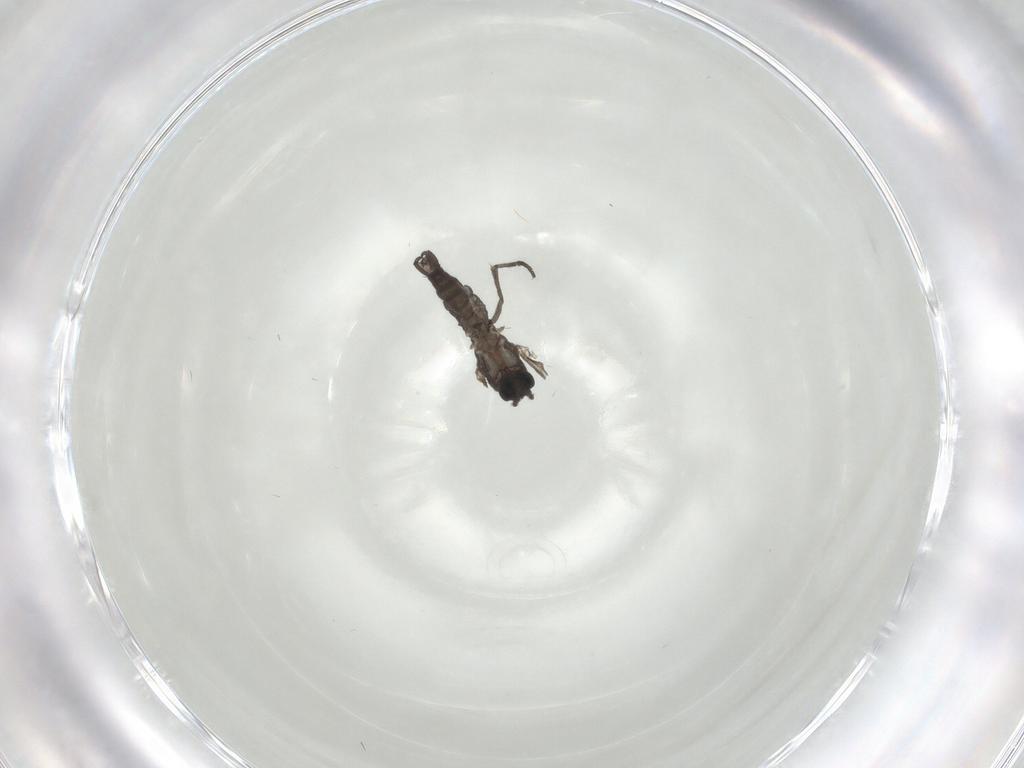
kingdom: Animalia
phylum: Arthropoda
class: Insecta
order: Diptera
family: Sciaridae
